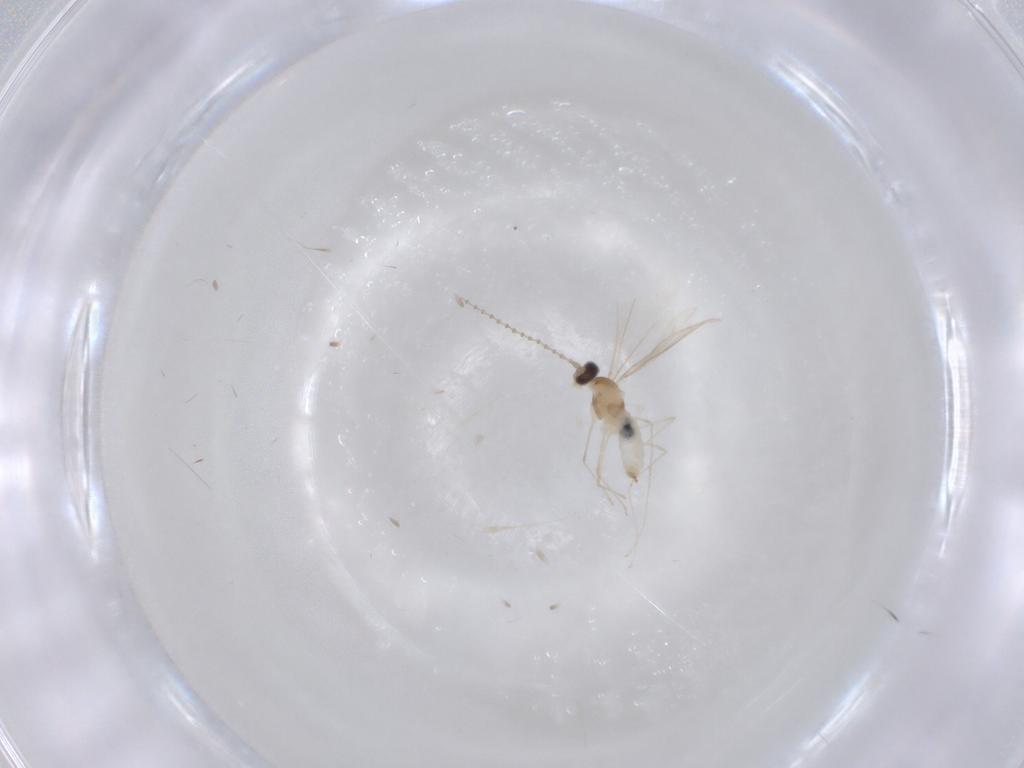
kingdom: Animalia
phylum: Arthropoda
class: Insecta
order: Diptera
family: Cecidomyiidae
